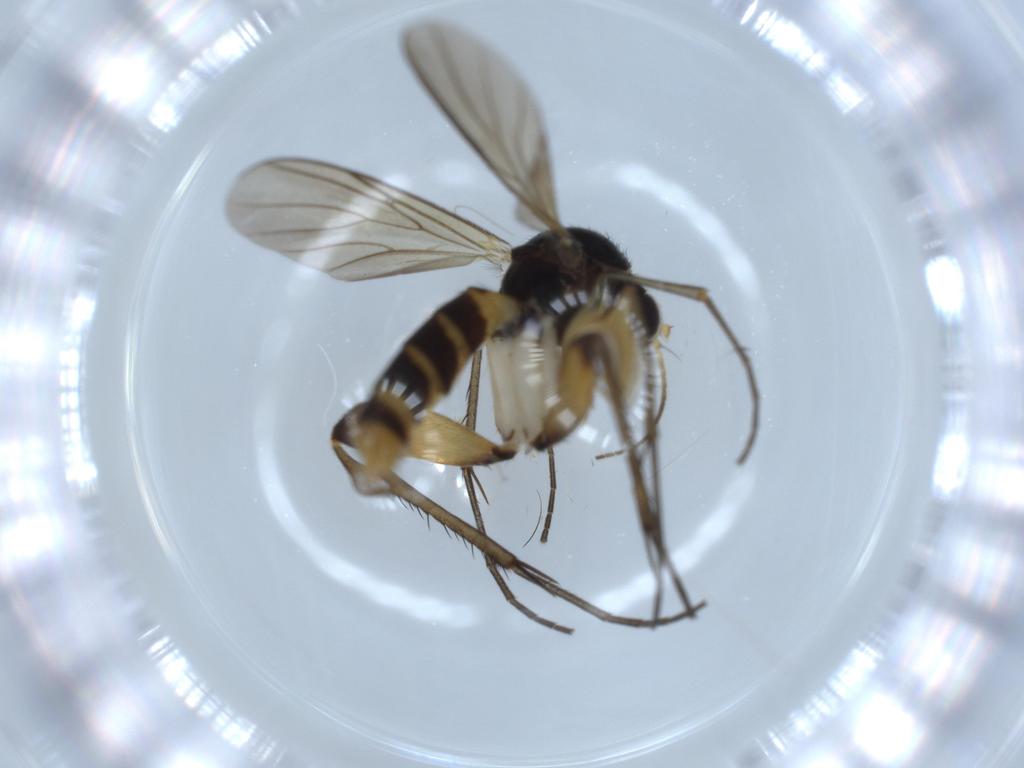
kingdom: Animalia
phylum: Arthropoda
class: Insecta
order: Diptera
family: Mycetophilidae
